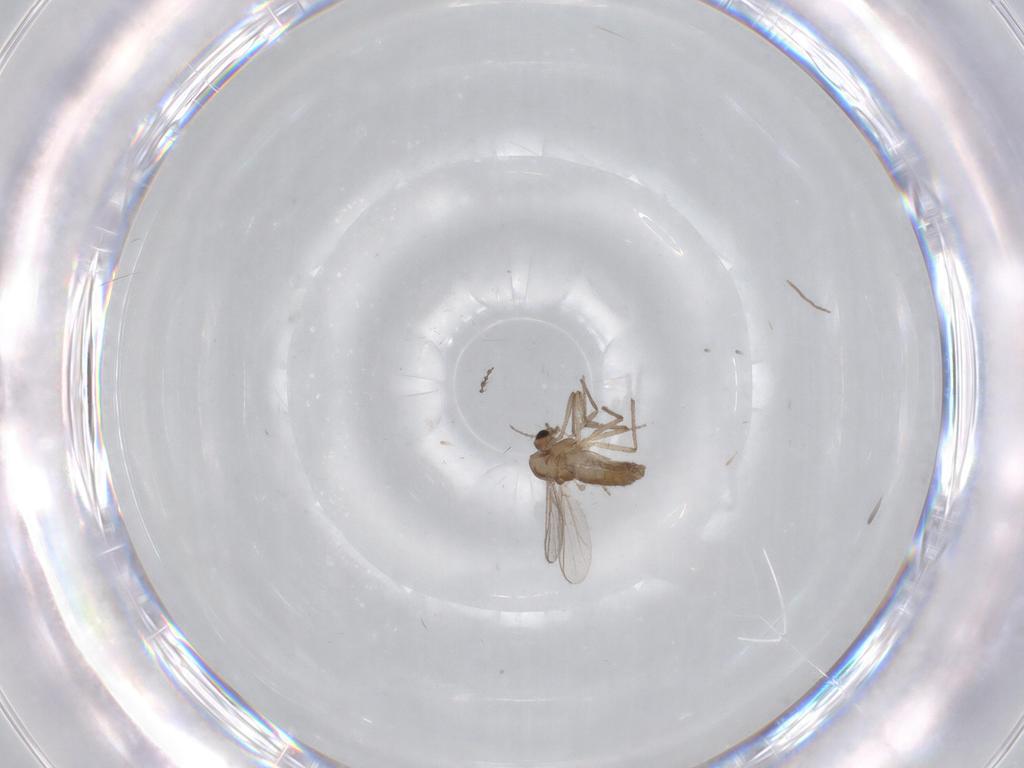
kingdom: Animalia
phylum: Arthropoda
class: Insecta
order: Diptera
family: Chironomidae
